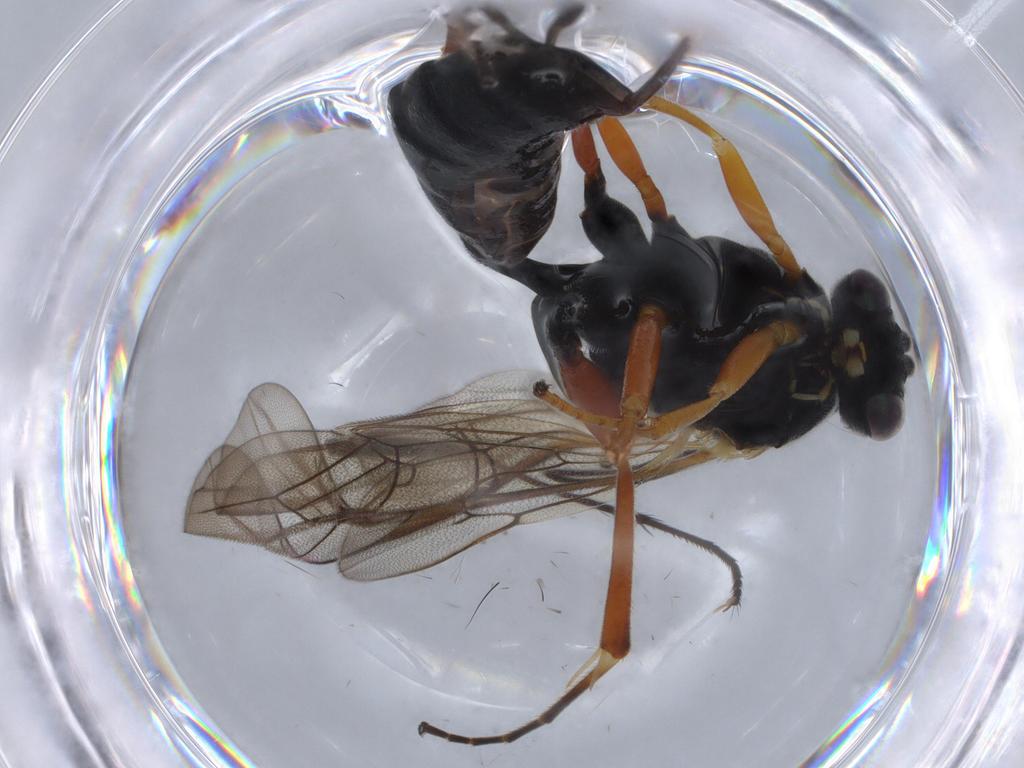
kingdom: Animalia
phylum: Arthropoda
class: Insecta
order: Hymenoptera
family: Ichneumonidae
